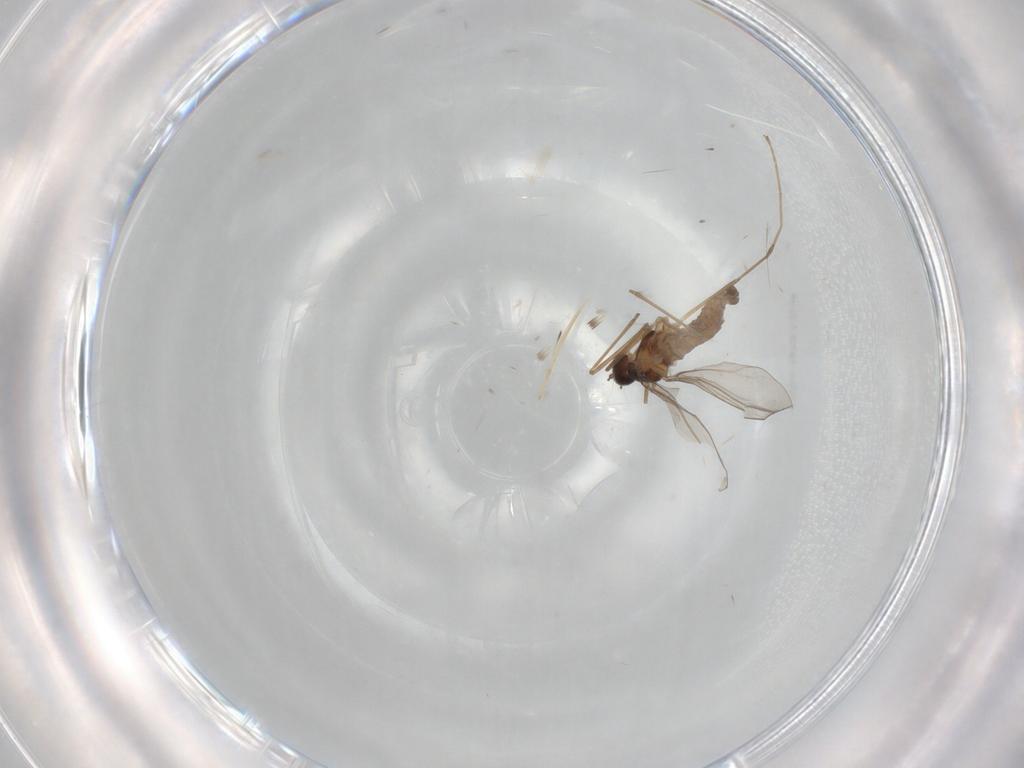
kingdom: Animalia
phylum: Arthropoda
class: Insecta
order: Diptera
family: Cecidomyiidae
